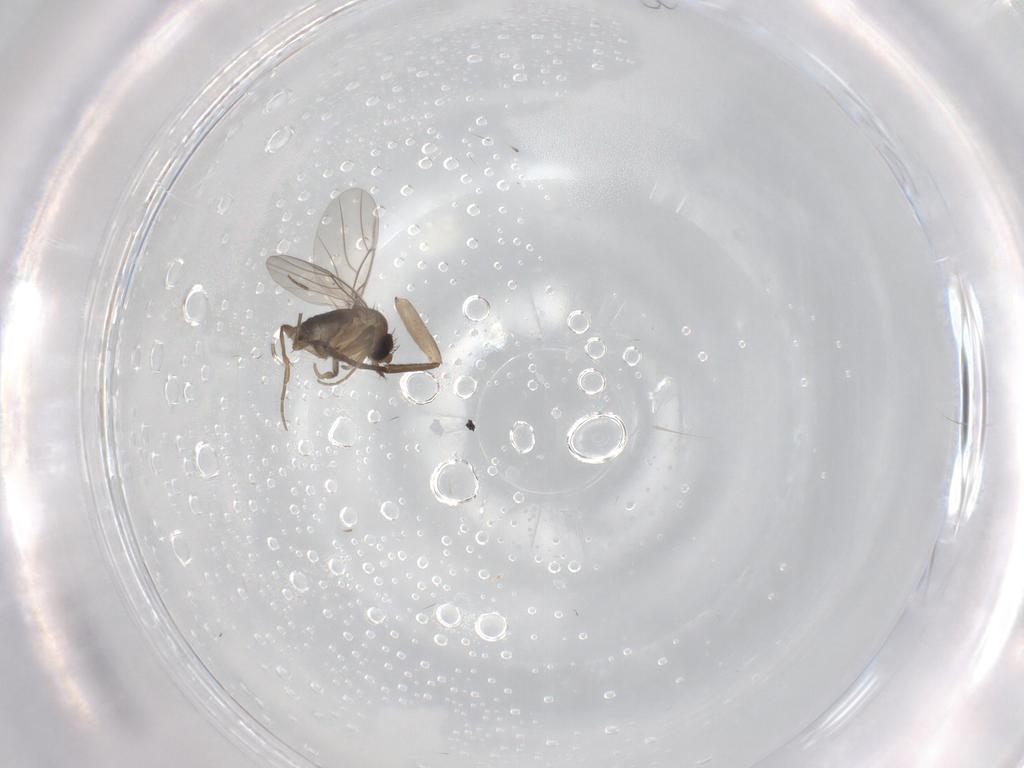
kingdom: Animalia
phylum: Arthropoda
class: Insecta
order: Diptera
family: Phoridae
